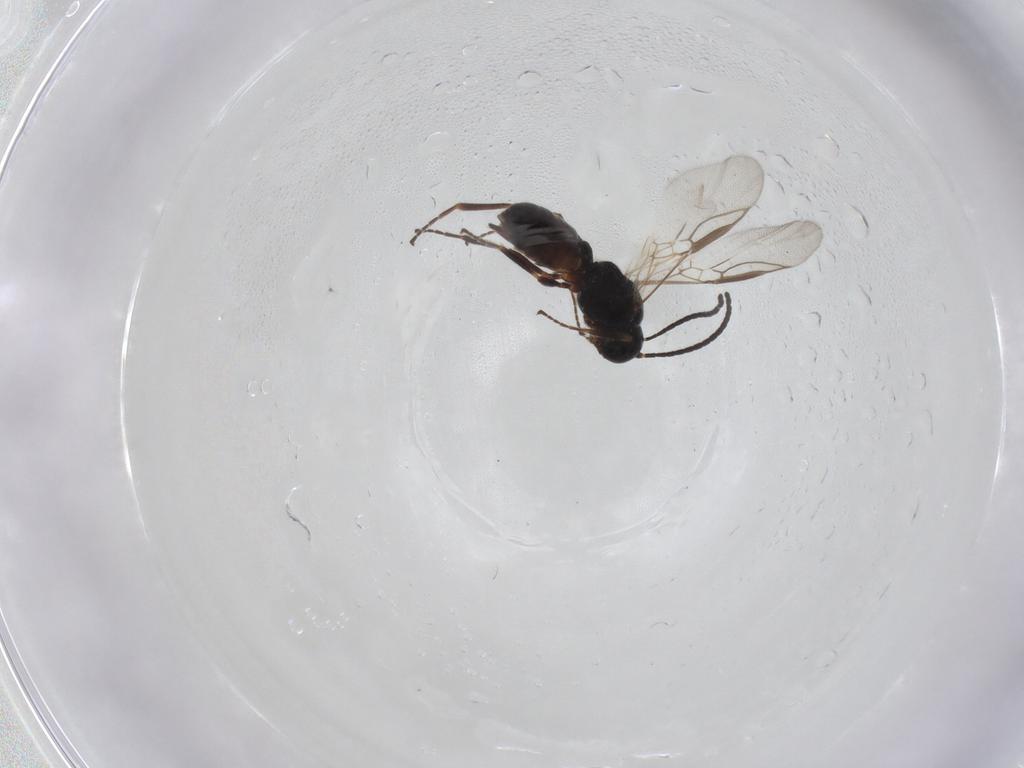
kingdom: Animalia
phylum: Arthropoda
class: Insecta
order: Hymenoptera
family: Braconidae
